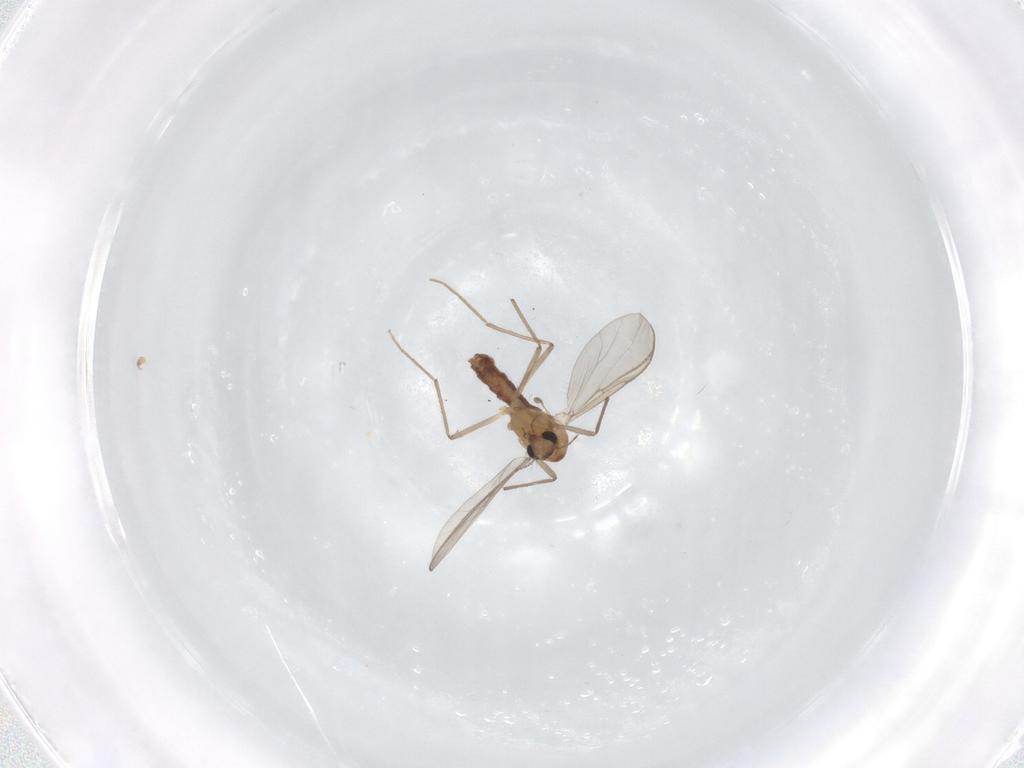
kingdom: Animalia
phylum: Arthropoda
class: Insecta
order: Diptera
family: Chironomidae
